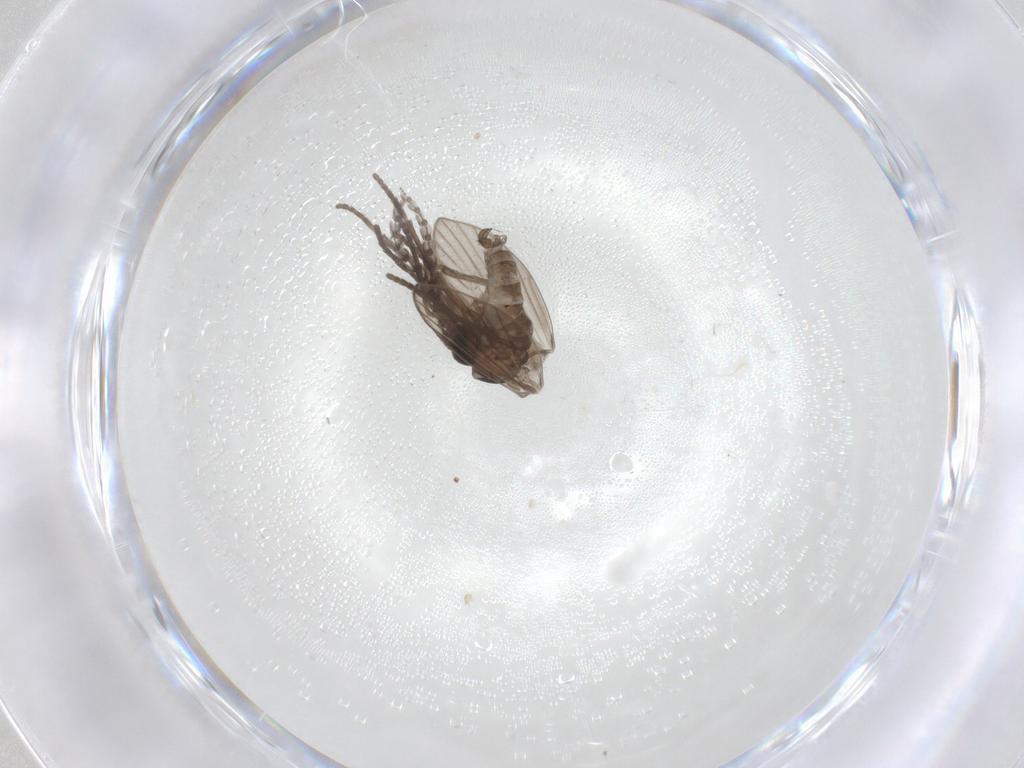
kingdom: Animalia
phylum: Arthropoda
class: Insecta
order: Diptera
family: Psychodidae
